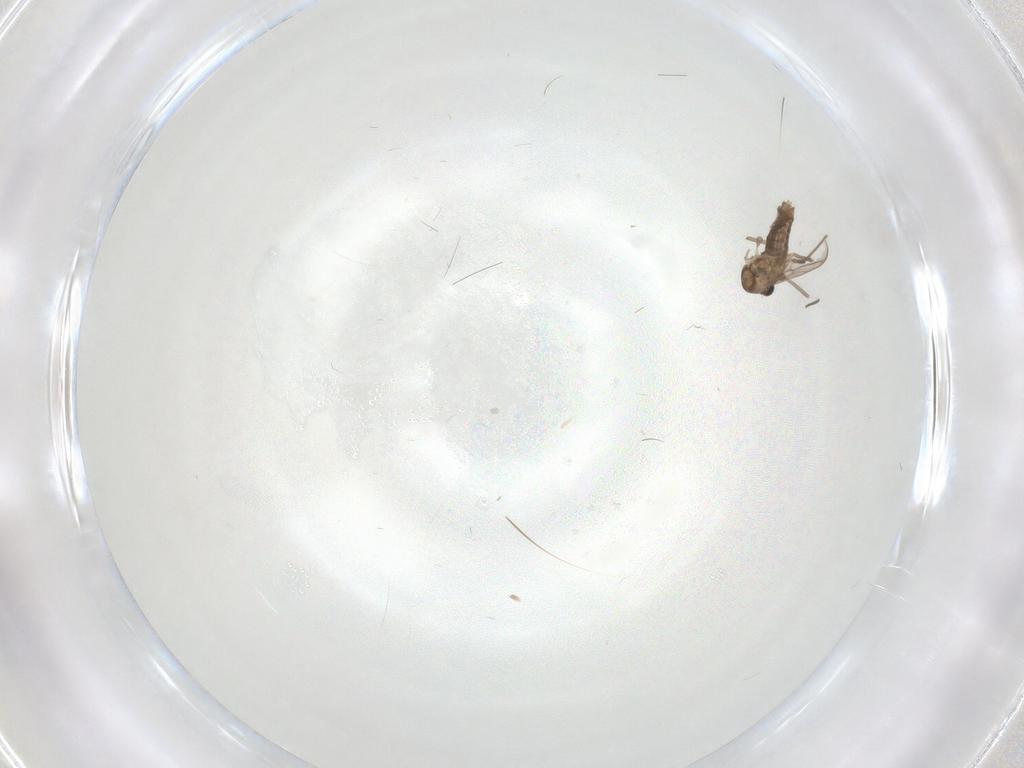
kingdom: Animalia
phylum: Arthropoda
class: Insecta
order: Diptera
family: Chironomidae
